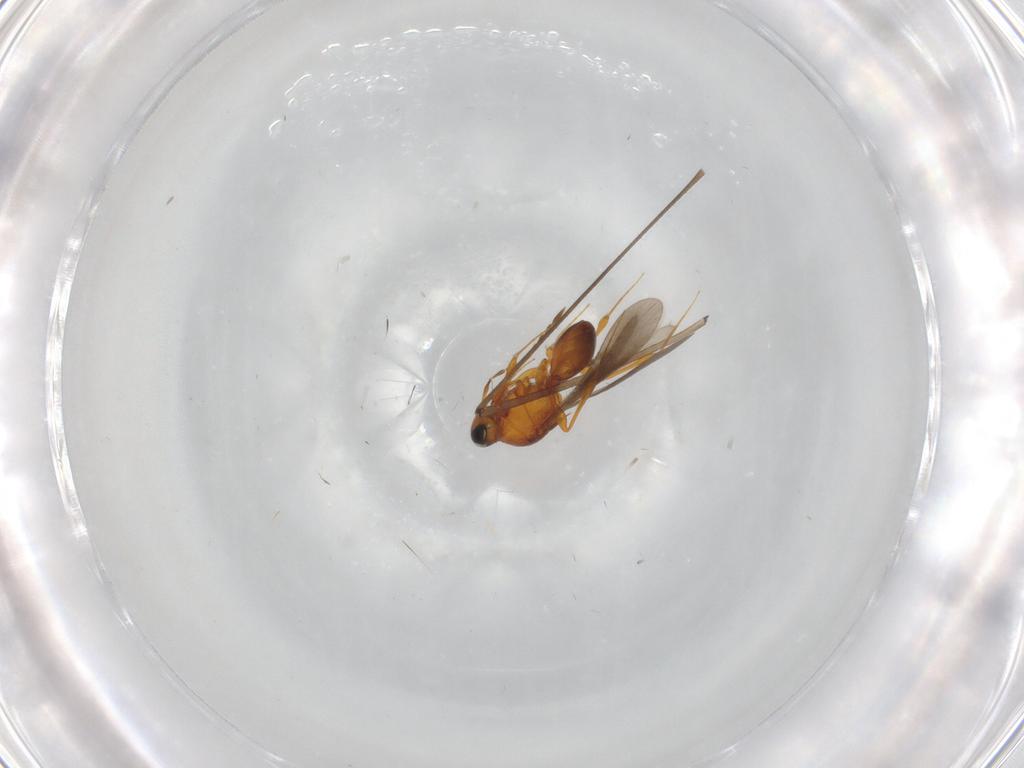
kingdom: Animalia
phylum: Arthropoda
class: Insecta
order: Hymenoptera
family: Platygastridae
